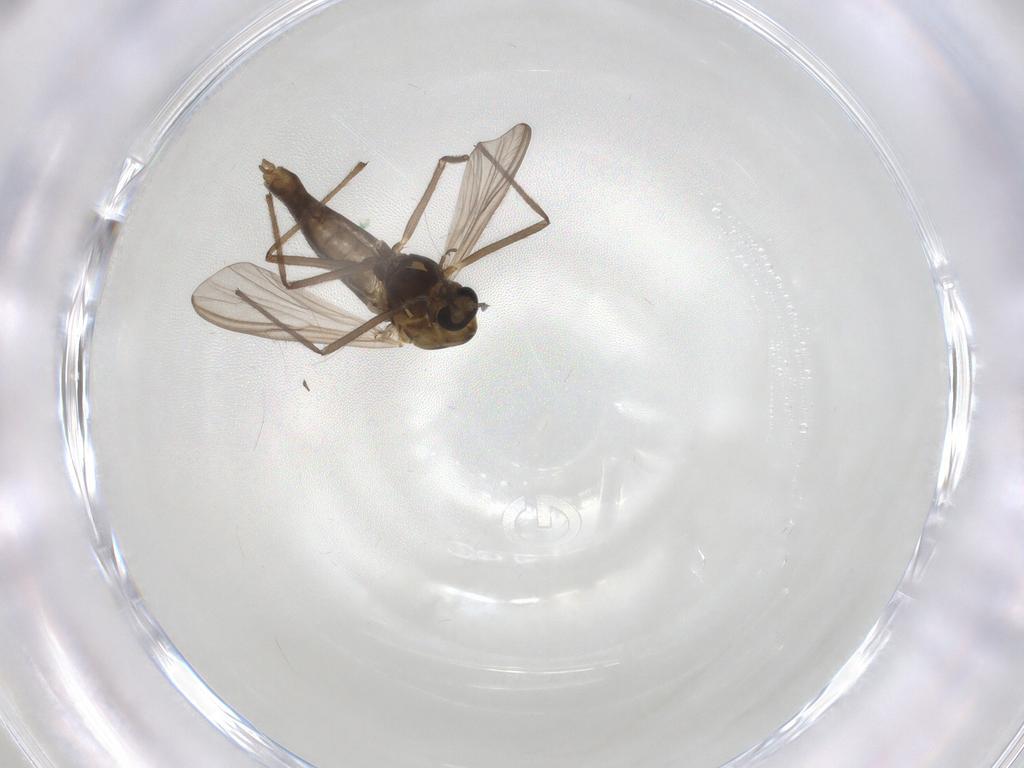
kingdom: Animalia
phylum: Arthropoda
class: Insecta
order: Diptera
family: Chironomidae
